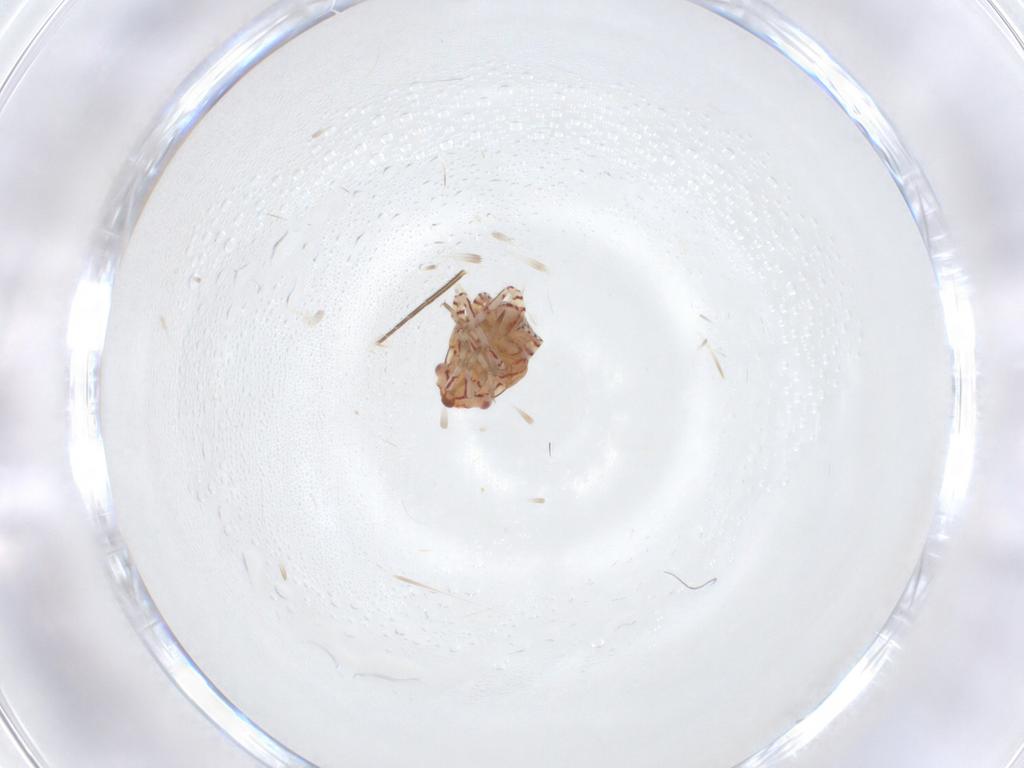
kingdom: Animalia
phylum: Arthropoda
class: Insecta
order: Hemiptera
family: Miridae
